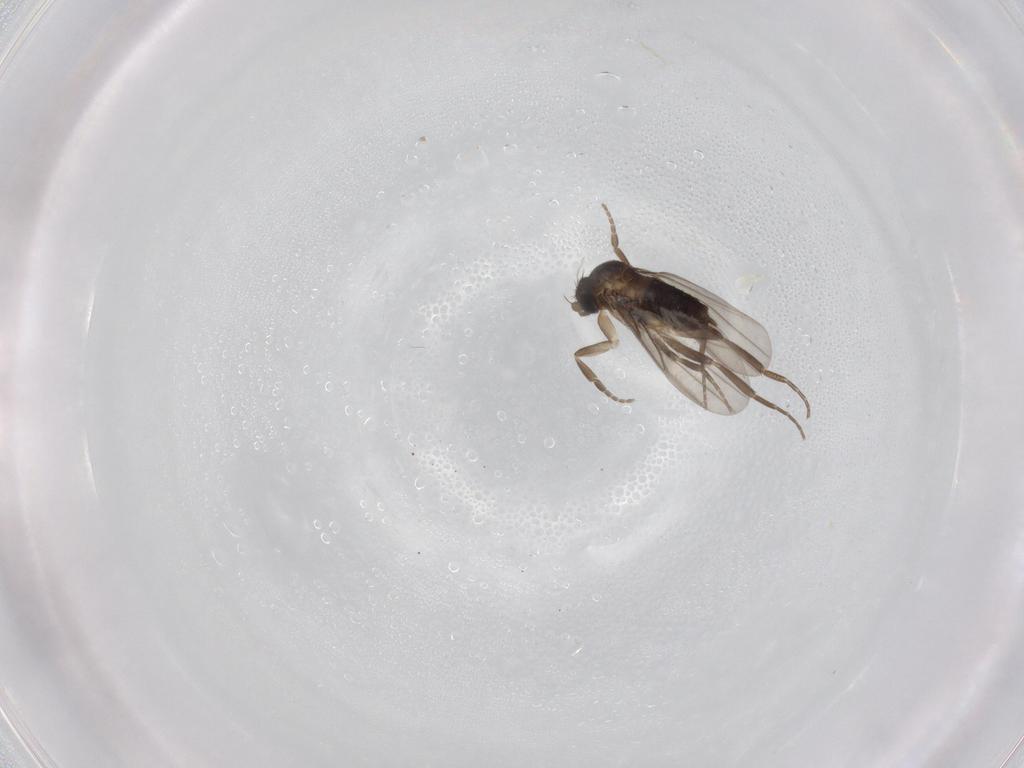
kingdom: Animalia
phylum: Arthropoda
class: Insecta
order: Diptera
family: Phoridae
